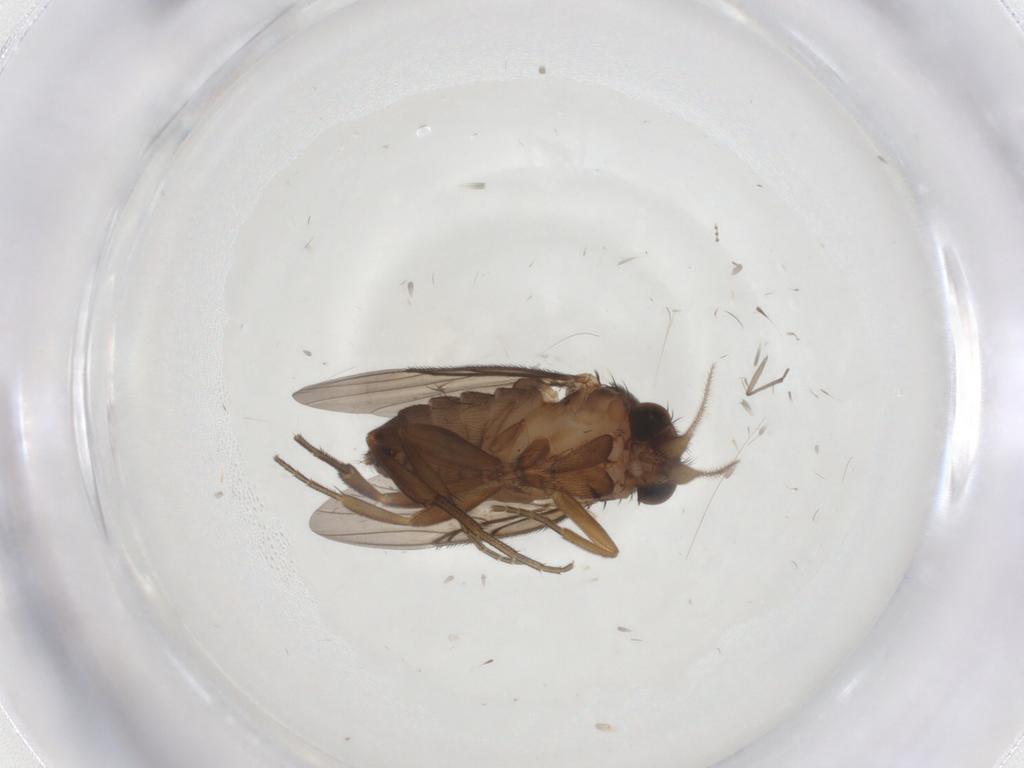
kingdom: Animalia
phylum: Arthropoda
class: Insecta
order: Diptera
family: Phoridae
